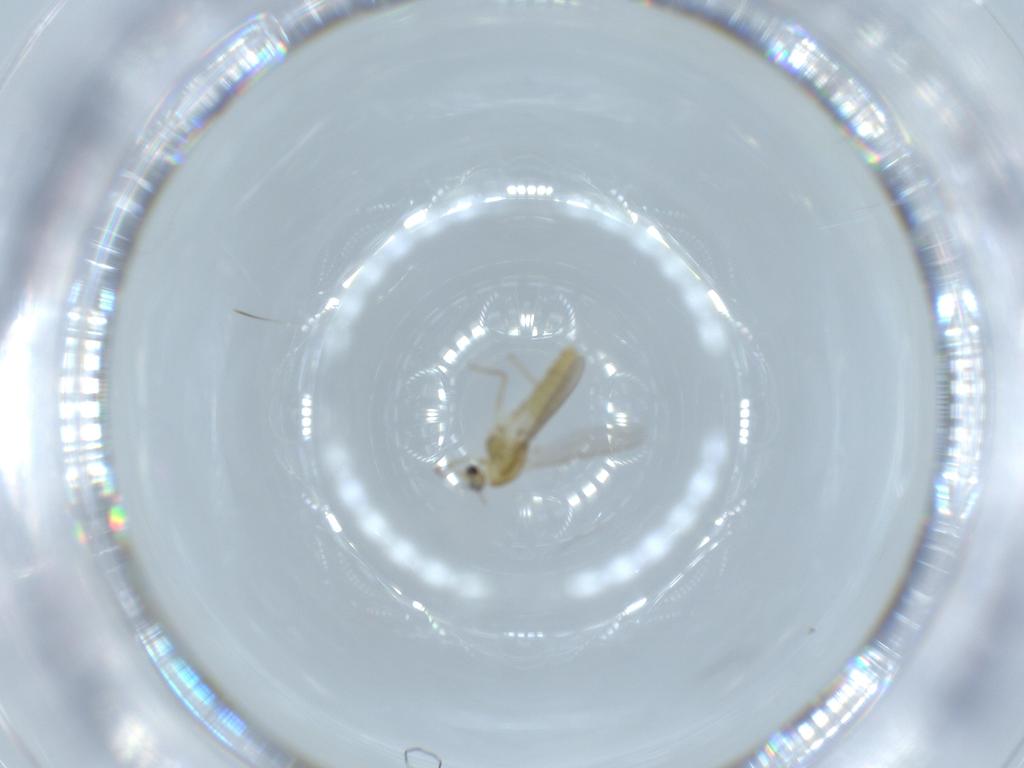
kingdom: Animalia
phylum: Arthropoda
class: Insecta
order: Diptera
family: Chironomidae
